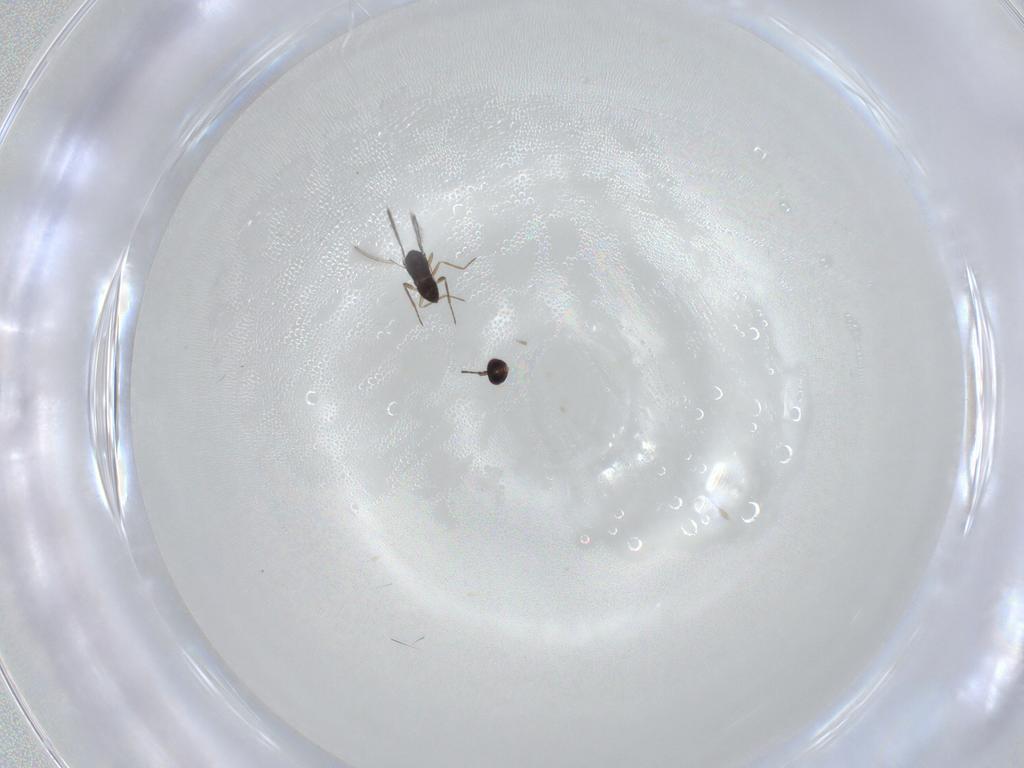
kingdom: Animalia
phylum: Arthropoda
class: Insecta
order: Hymenoptera
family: Mymaridae
